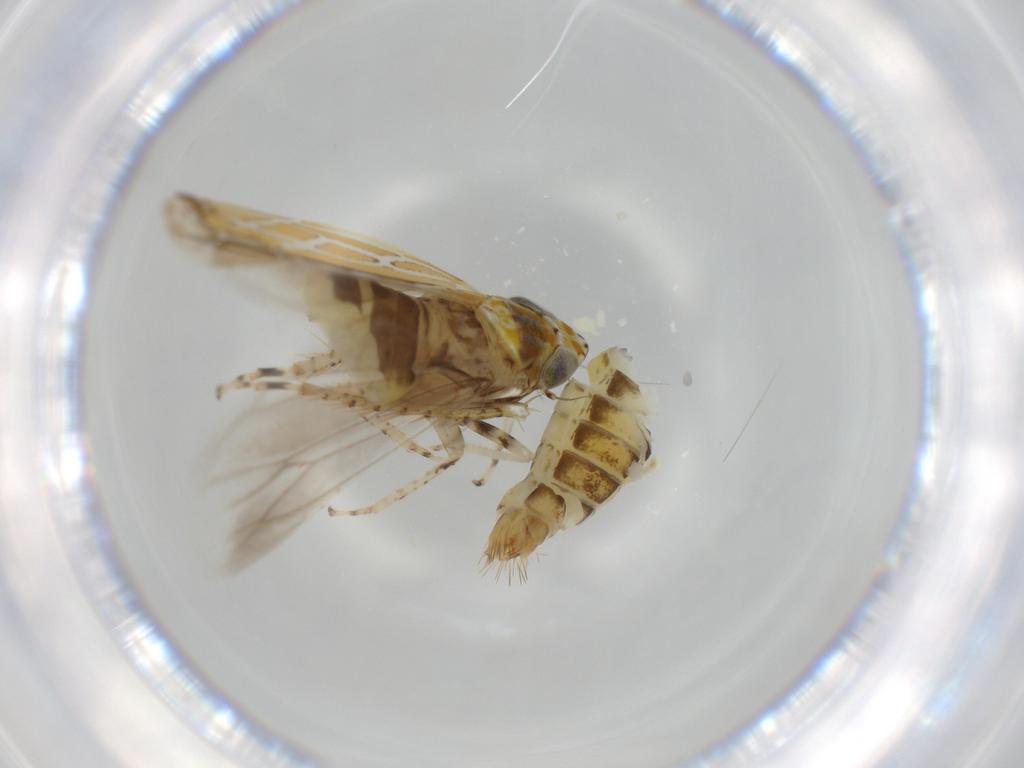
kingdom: Animalia
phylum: Arthropoda
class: Insecta
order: Hemiptera
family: Cicadellidae
